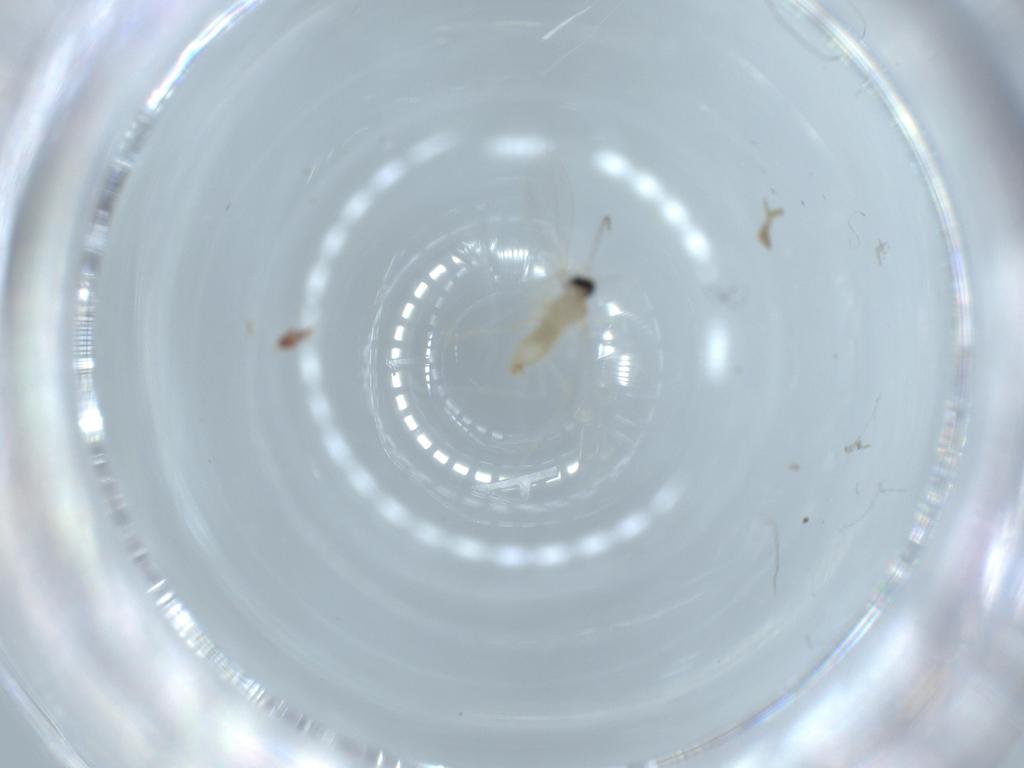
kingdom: Animalia
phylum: Arthropoda
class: Insecta
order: Diptera
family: Cecidomyiidae
